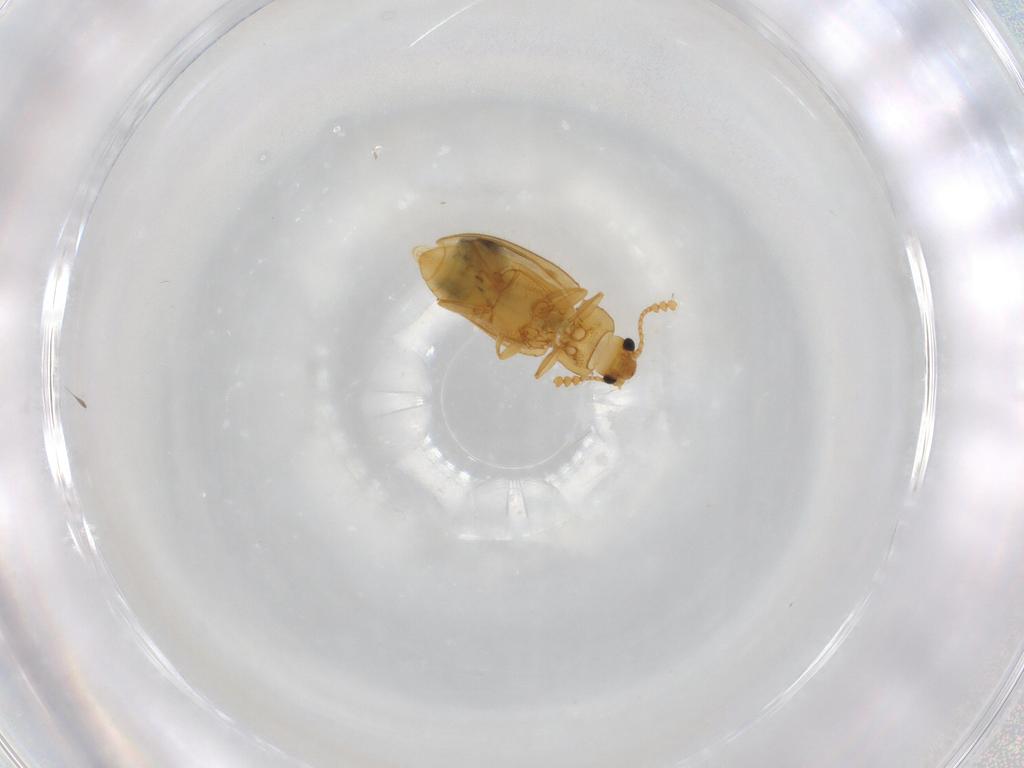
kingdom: Animalia
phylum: Arthropoda
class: Insecta
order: Coleoptera
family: Erotylidae
